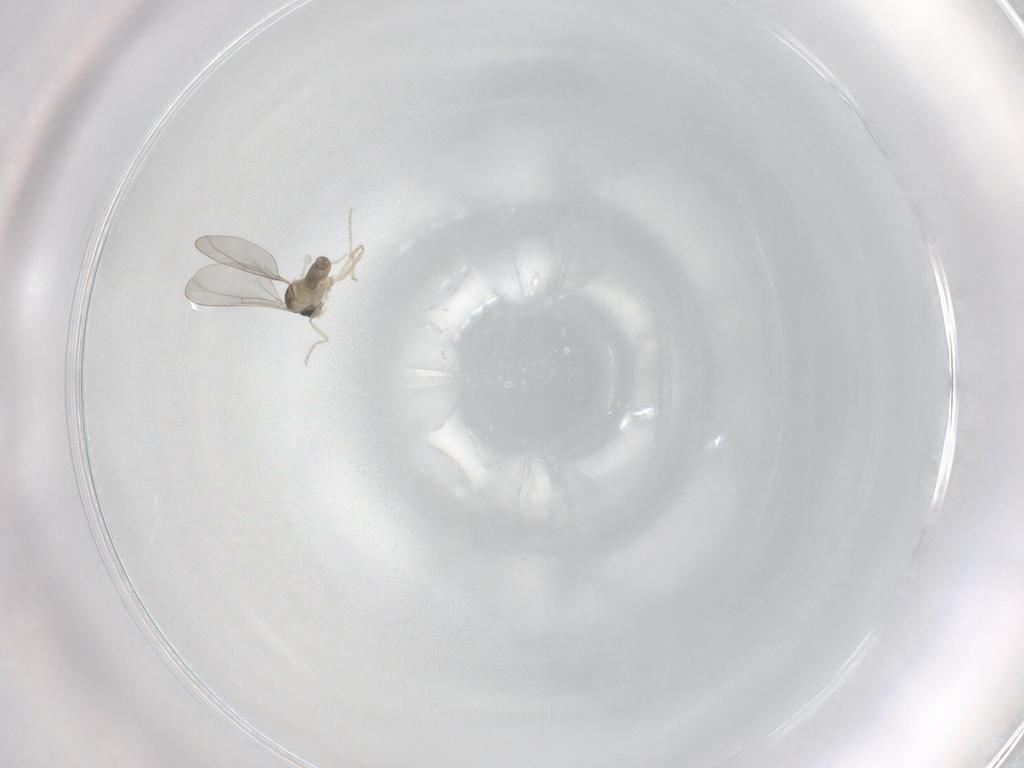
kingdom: Animalia
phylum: Arthropoda
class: Insecta
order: Diptera
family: Cecidomyiidae
